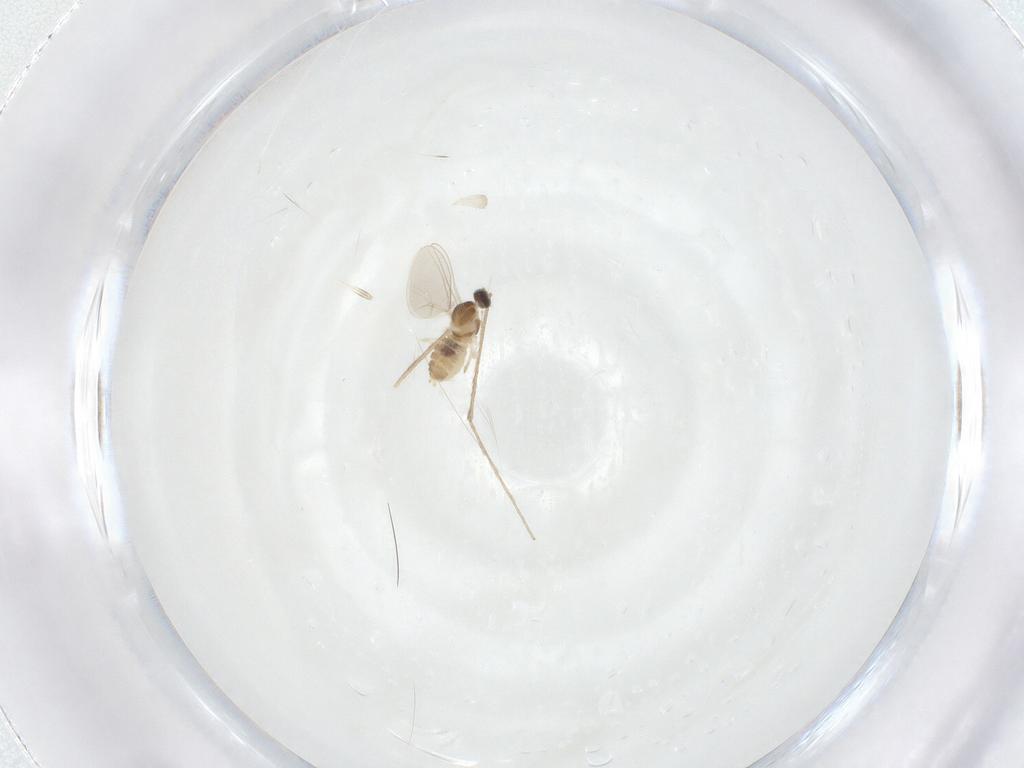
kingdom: Animalia
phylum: Arthropoda
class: Insecta
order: Diptera
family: Cecidomyiidae
